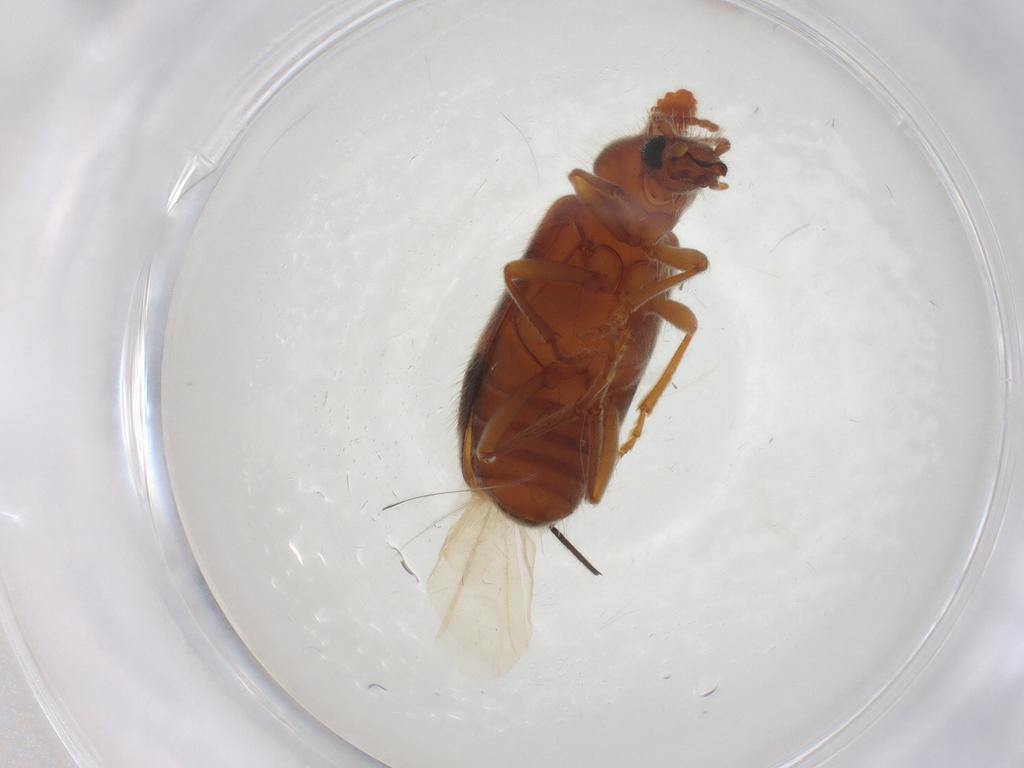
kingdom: Animalia
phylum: Arthropoda
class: Insecta
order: Coleoptera
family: Anthicidae
